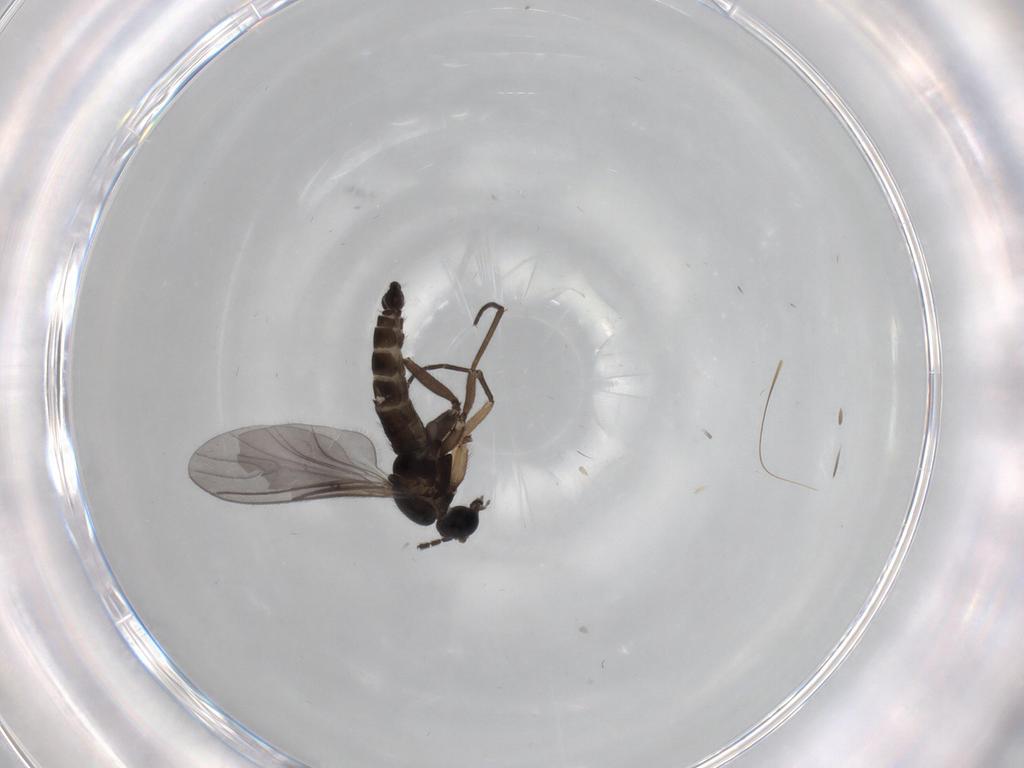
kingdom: Animalia
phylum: Arthropoda
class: Insecta
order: Diptera
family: Sciaridae
